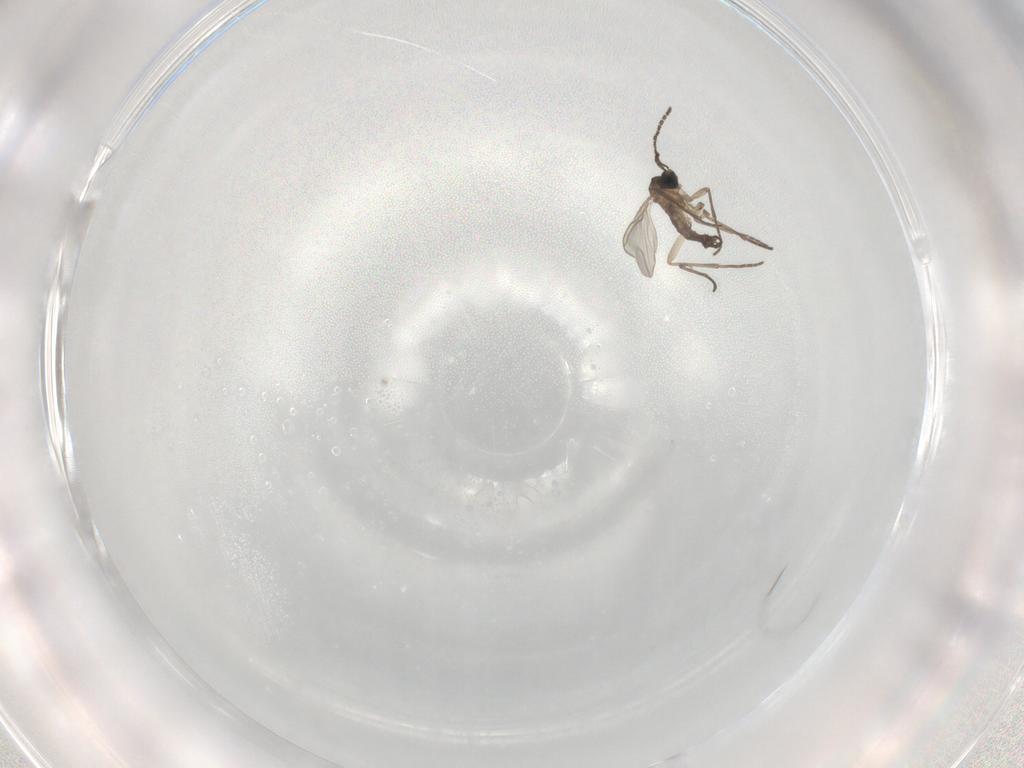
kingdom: Animalia
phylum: Arthropoda
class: Insecta
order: Diptera
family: Sciaridae
